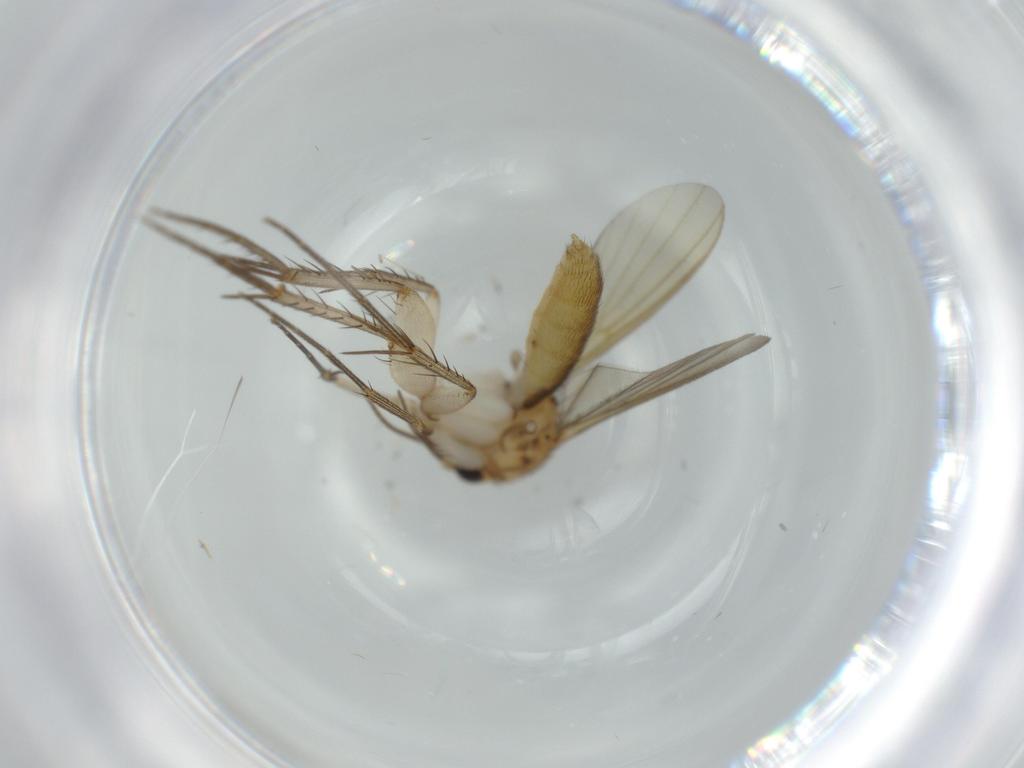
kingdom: Animalia
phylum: Arthropoda
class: Insecta
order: Diptera
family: Mycetophilidae
